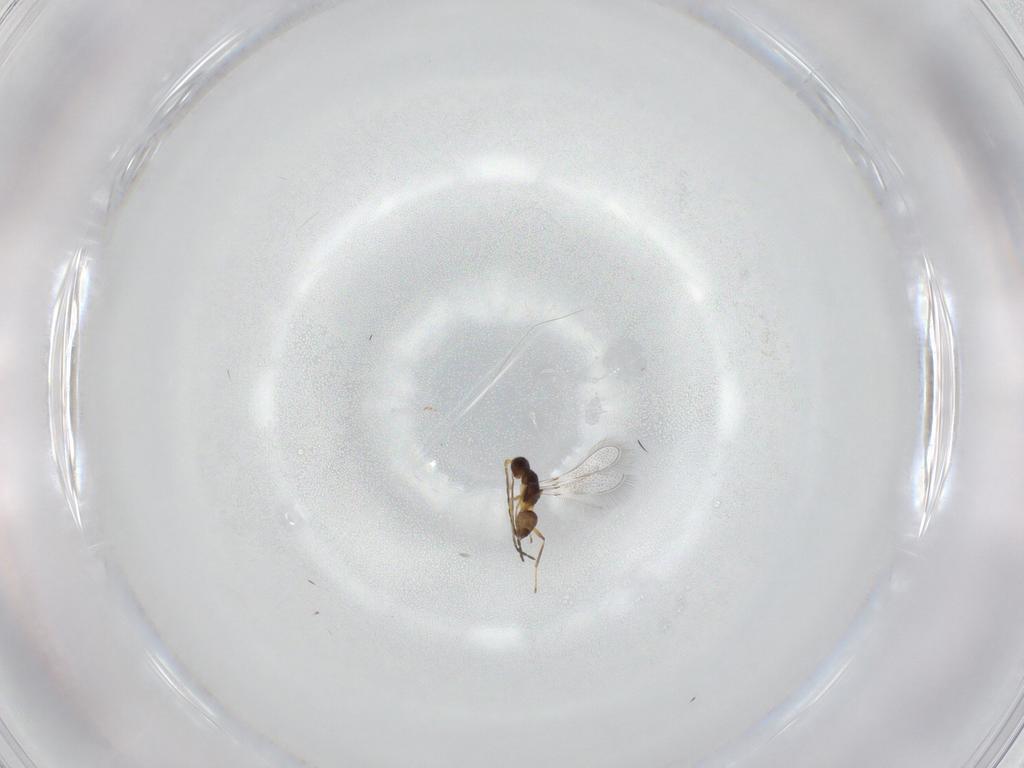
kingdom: Animalia
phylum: Arthropoda
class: Insecta
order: Hymenoptera
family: Mymaridae
